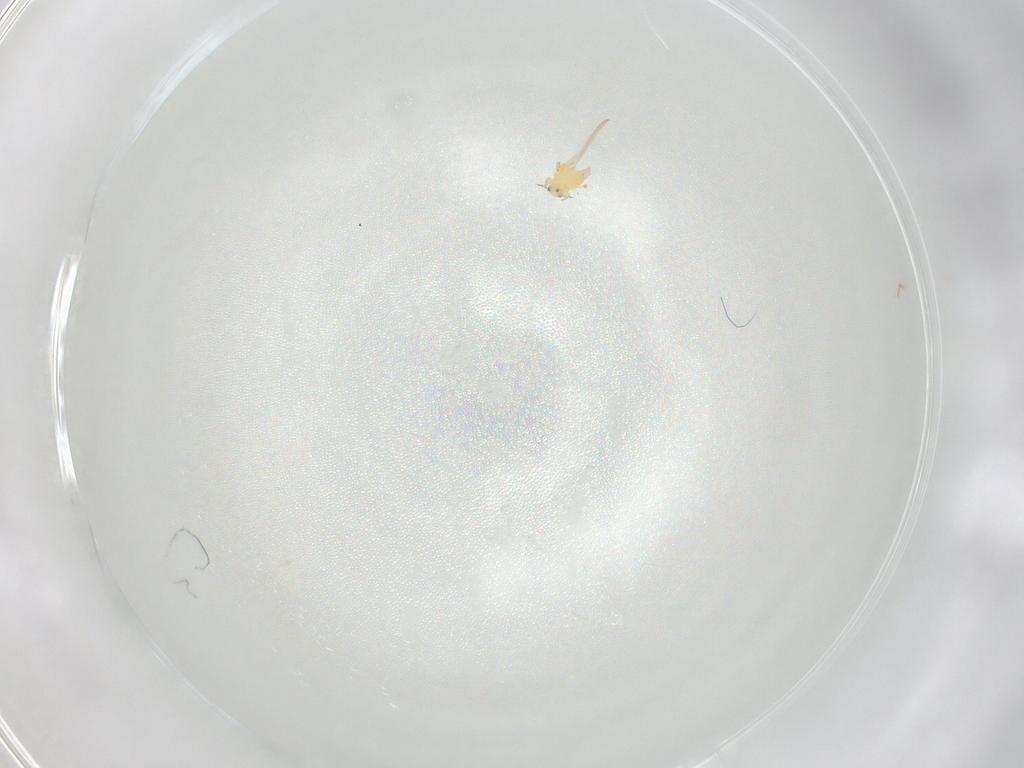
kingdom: Animalia
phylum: Arthropoda
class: Insecta
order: Thysanoptera
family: Thripidae
